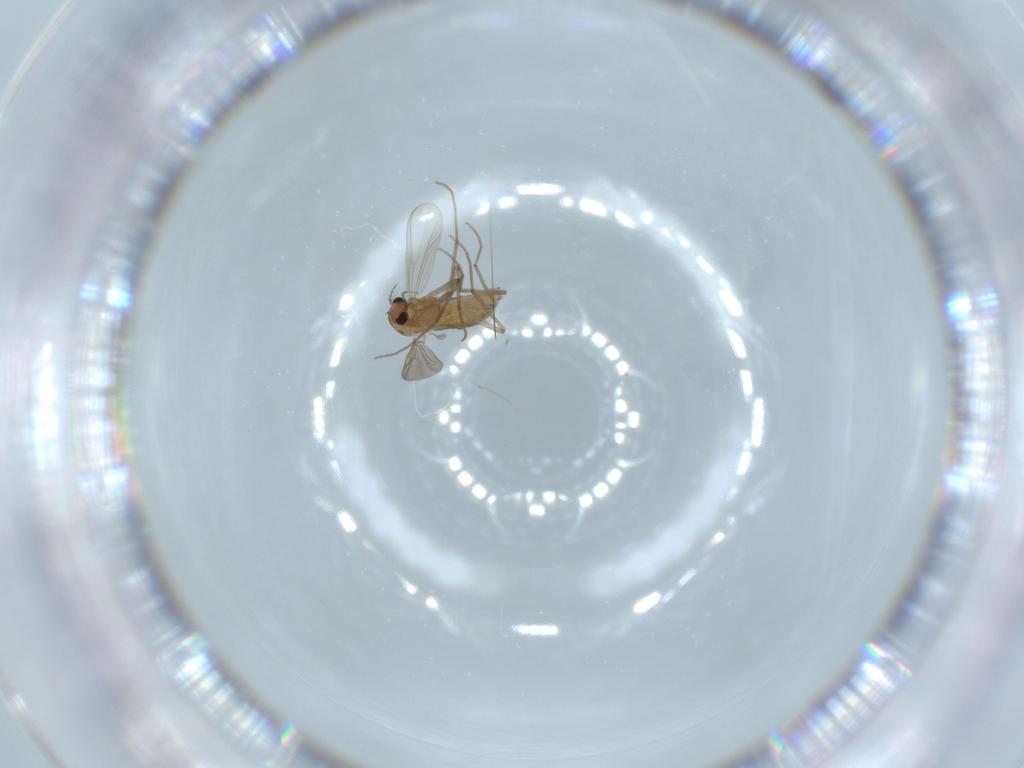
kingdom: Animalia
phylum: Arthropoda
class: Insecta
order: Diptera
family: Chironomidae
